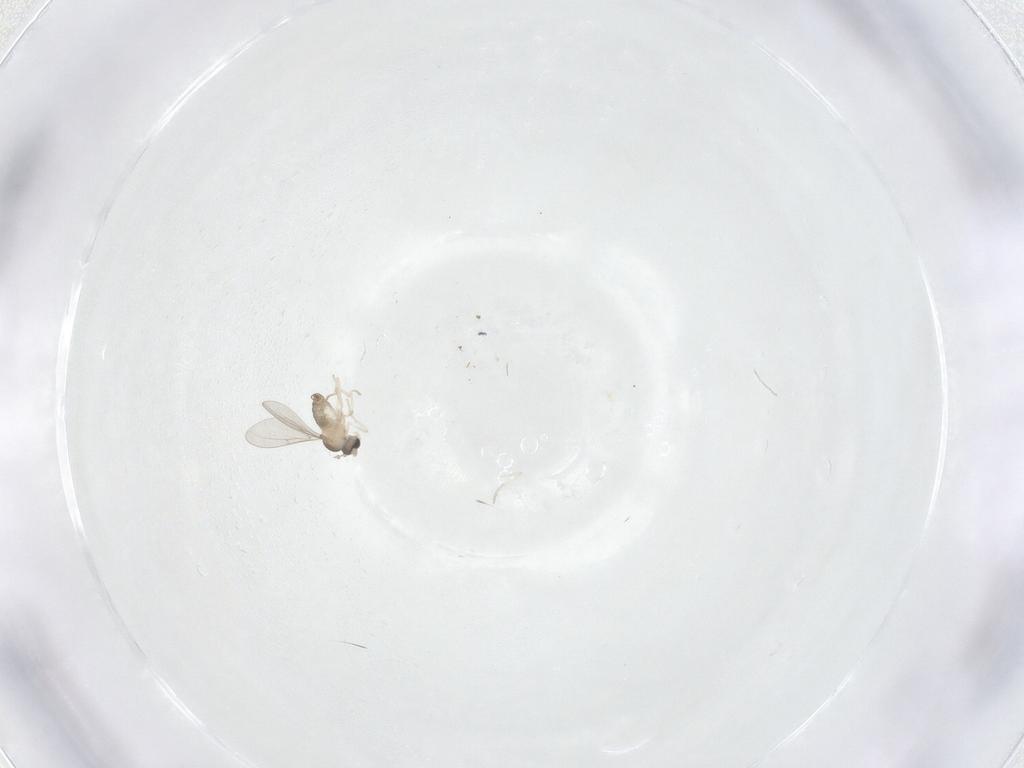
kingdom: Animalia
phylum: Arthropoda
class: Insecta
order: Diptera
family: Cecidomyiidae
